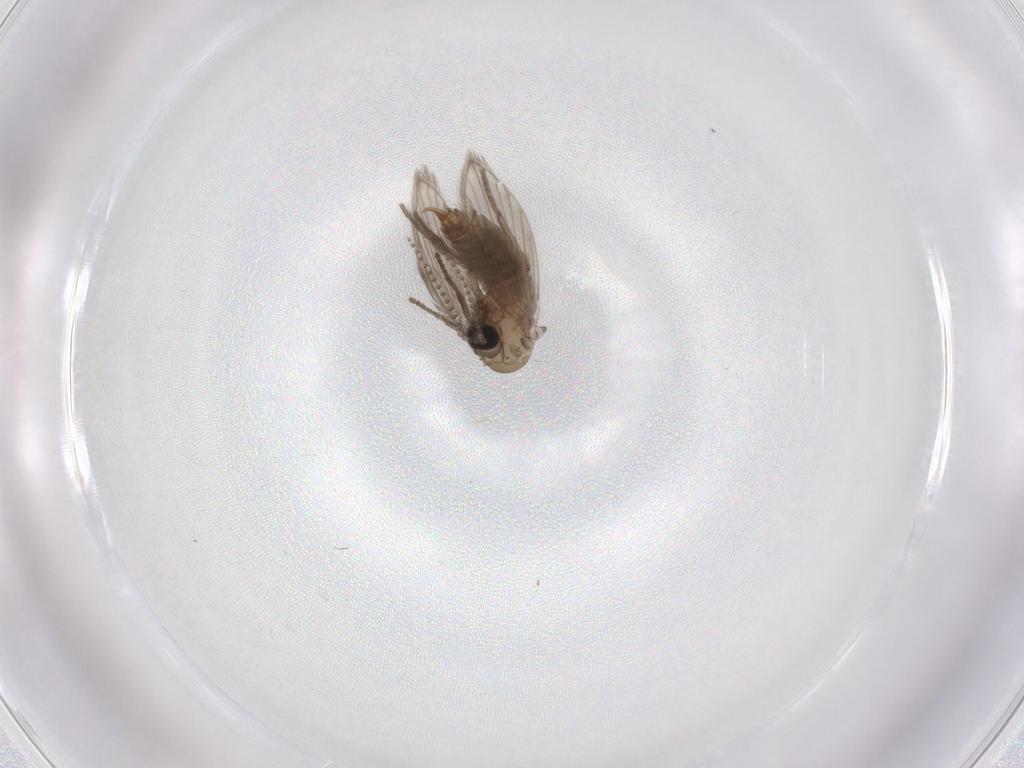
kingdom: Animalia
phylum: Arthropoda
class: Insecta
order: Diptera
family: Psychodidae
